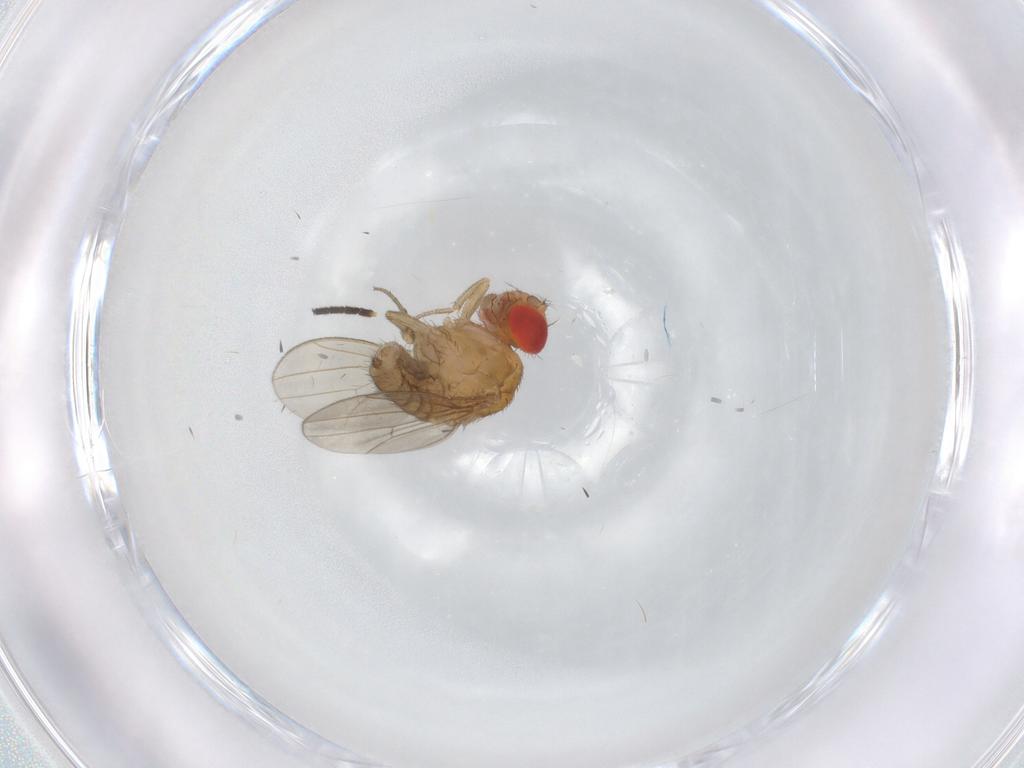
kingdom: Animalia
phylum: Arthropoda
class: Insecta
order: Diptera
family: Drosophilidae
